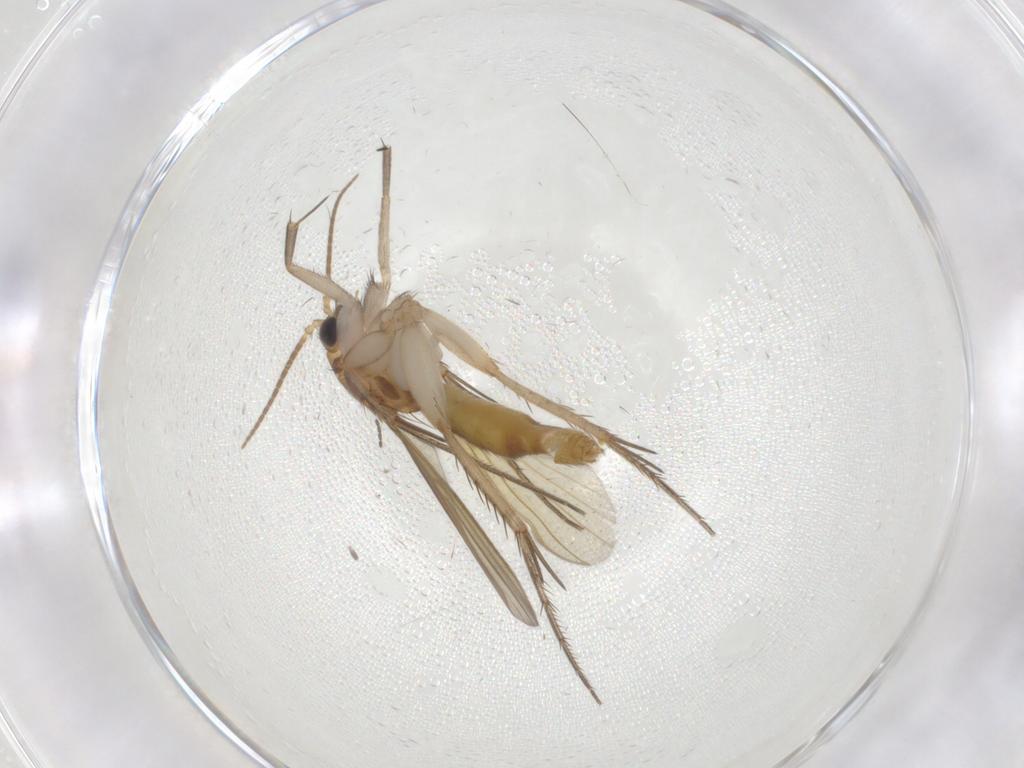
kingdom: Animalia
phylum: Arthropoda
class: Insecta
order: Diptera
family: Mycetophilidae
